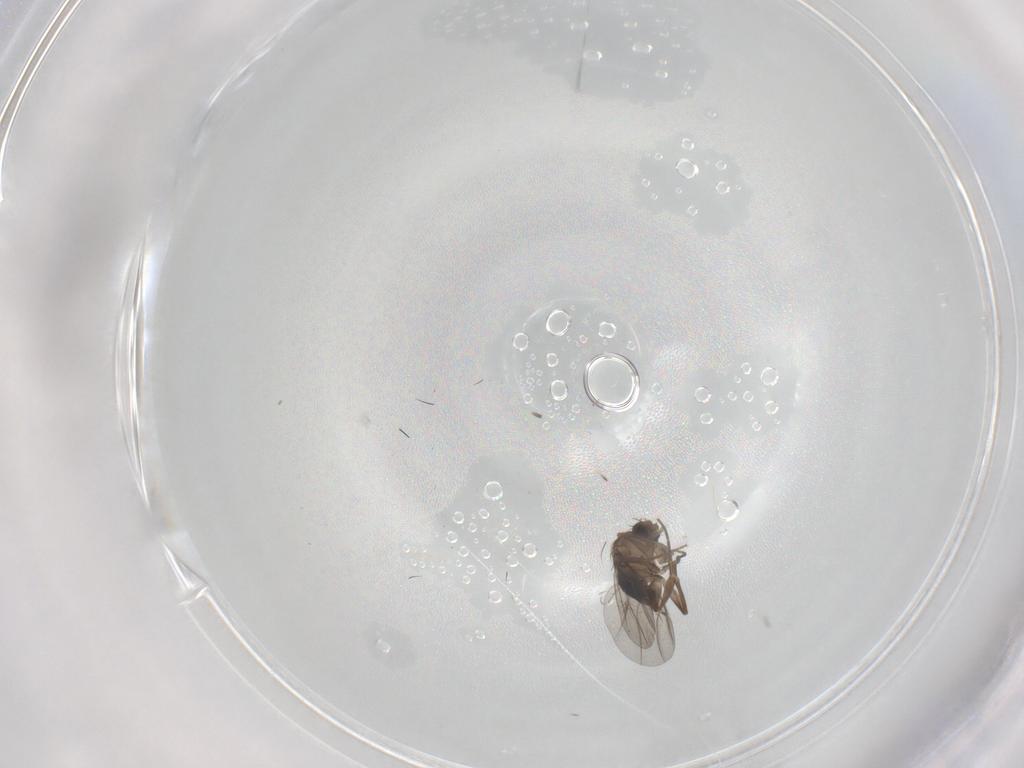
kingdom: Animalia
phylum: Arthropoda
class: Insecta
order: Diptera
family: Phoridae
